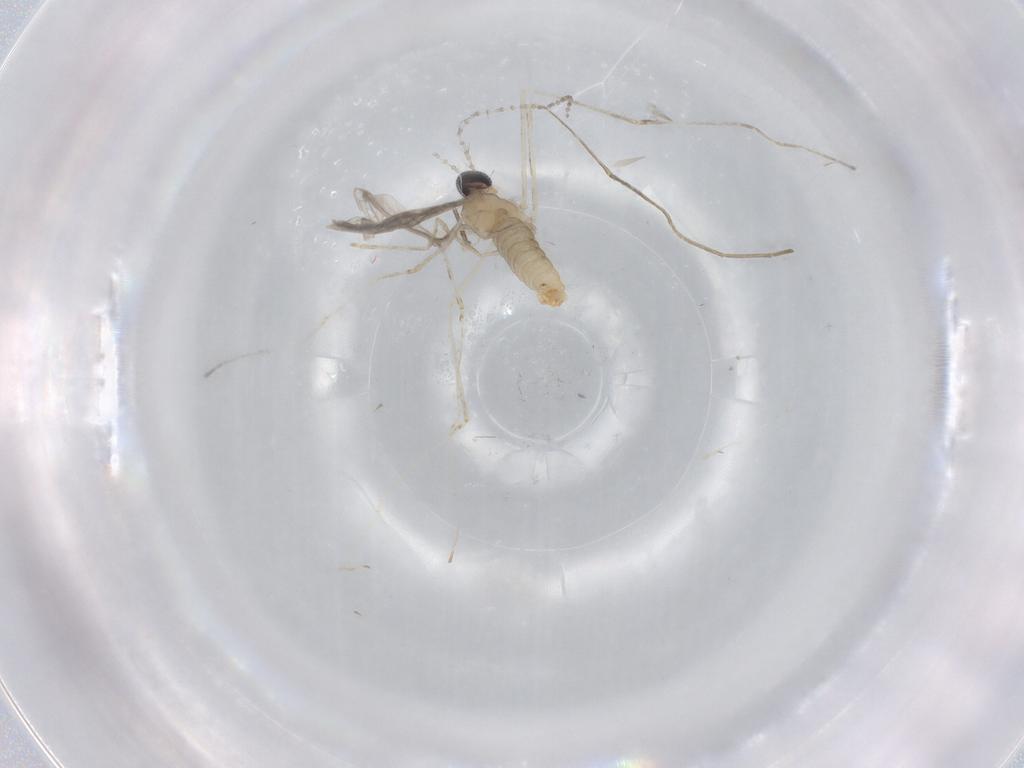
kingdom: Animalia
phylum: Arthropoda
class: Insecta
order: Diptera
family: Cecidomyiidae
